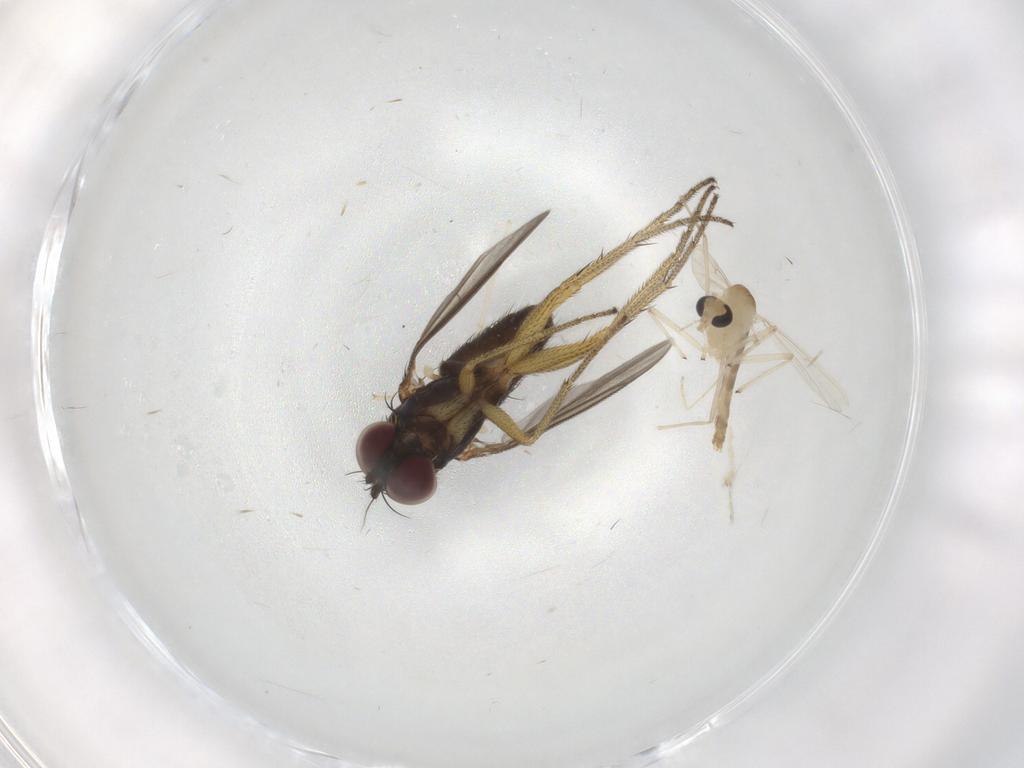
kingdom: Animalia
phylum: Arthropoda
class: Insecta
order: Diptera
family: Chironomidae
